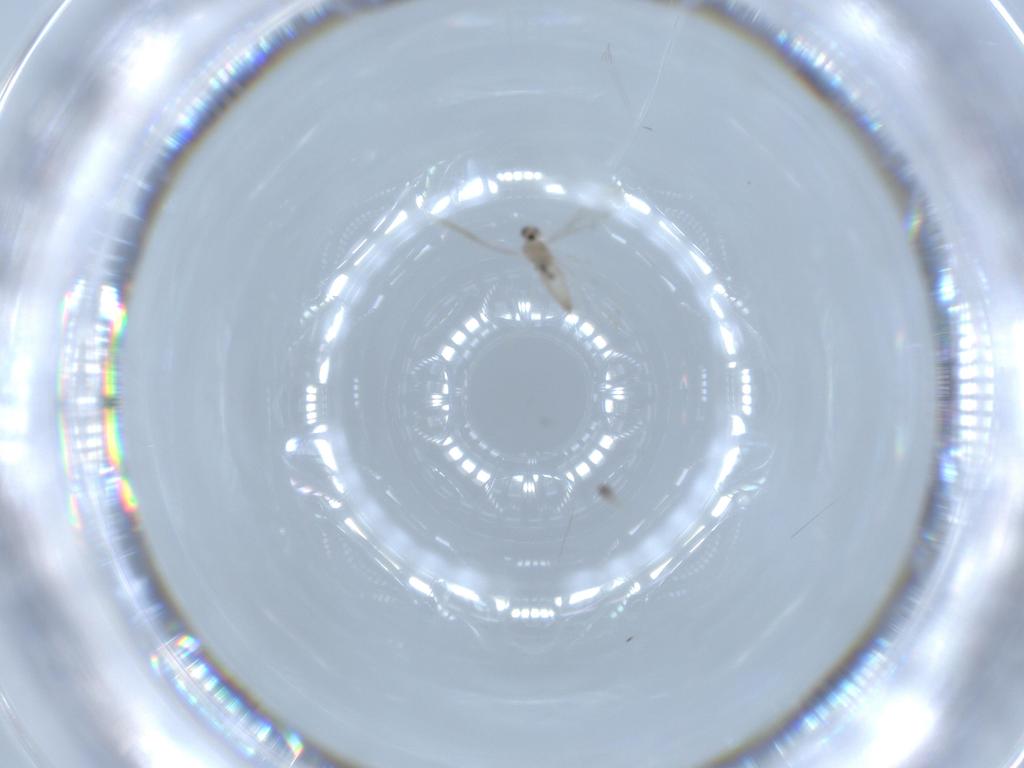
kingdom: Animalia
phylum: Arthropoda
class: Insecta
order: Diptera
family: Cecidomyiidae
